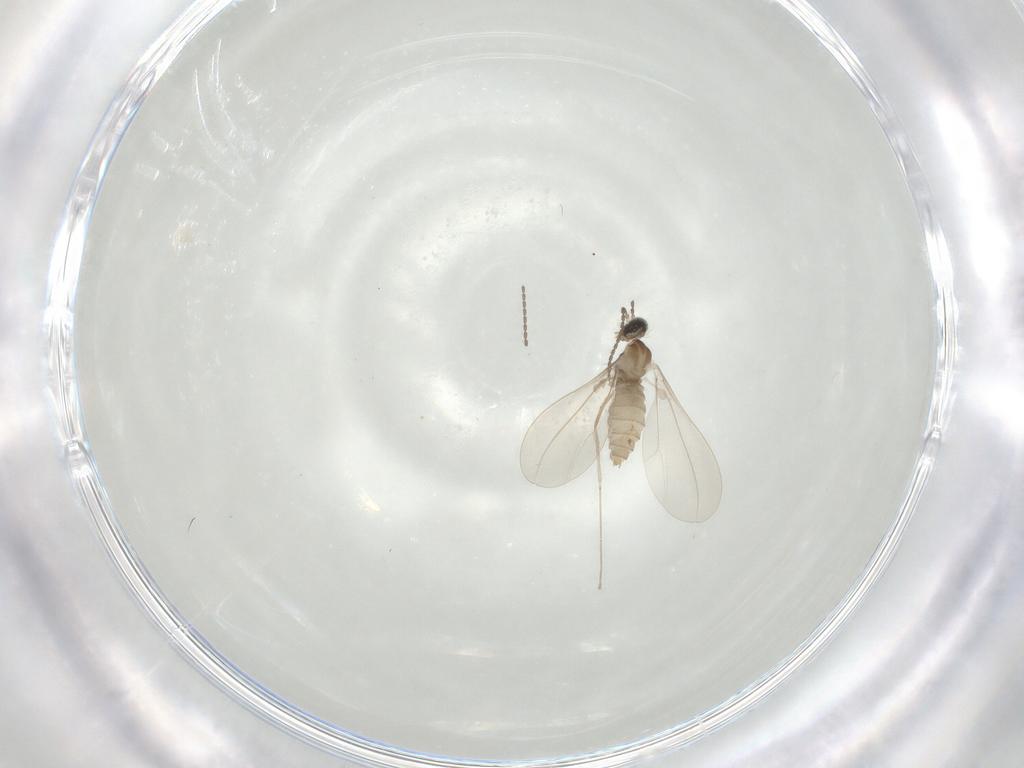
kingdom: Animalia
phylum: Arthropoda
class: Insecta
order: Diptera
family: Cecidomyiidae
